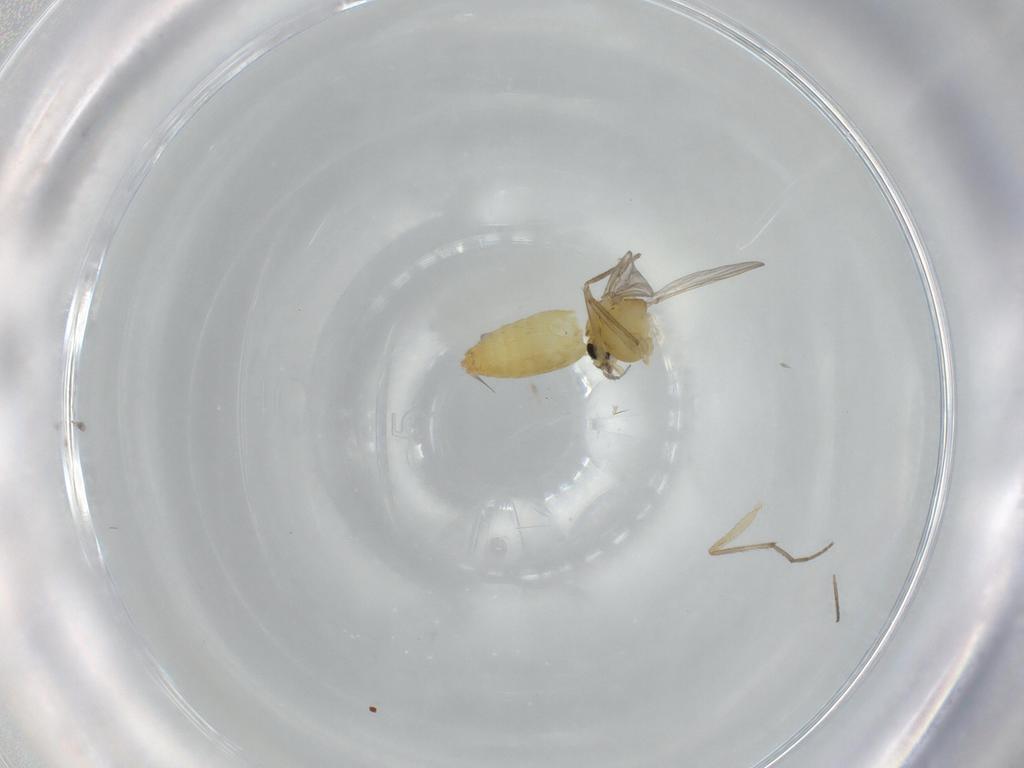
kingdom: Animalia
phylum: Arthropoda
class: Insecta
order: Diptera
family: Chironomidae
